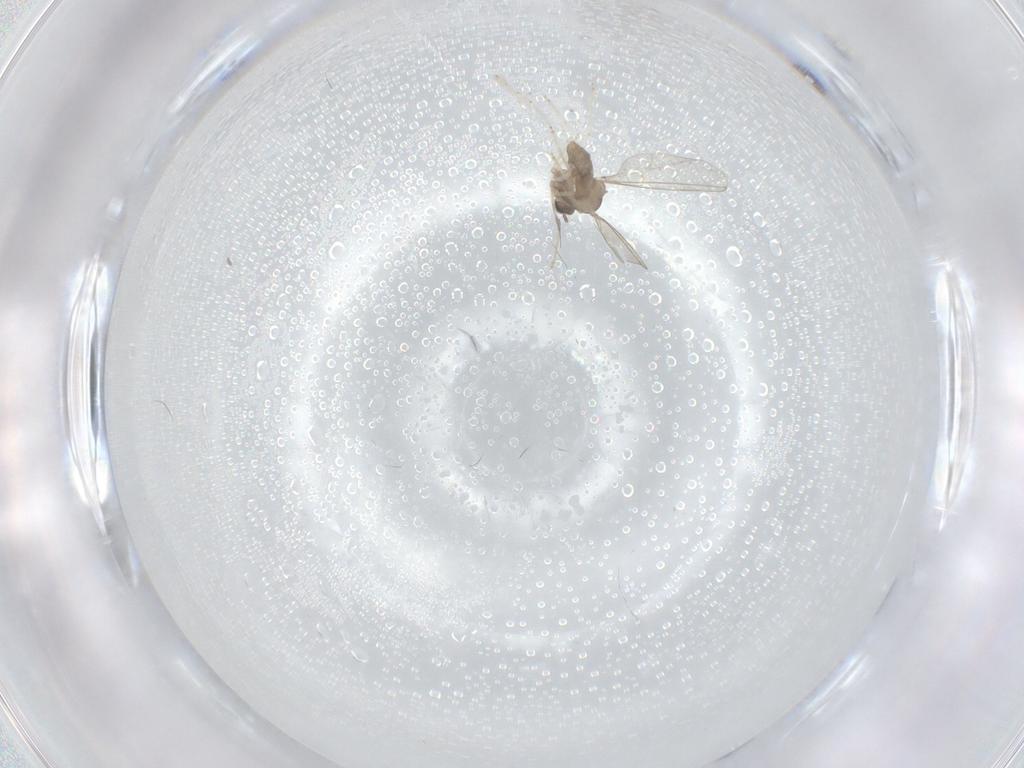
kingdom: Animalia
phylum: Arthropoda
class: Insecta
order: Diptera
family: Cecidomyiidae
